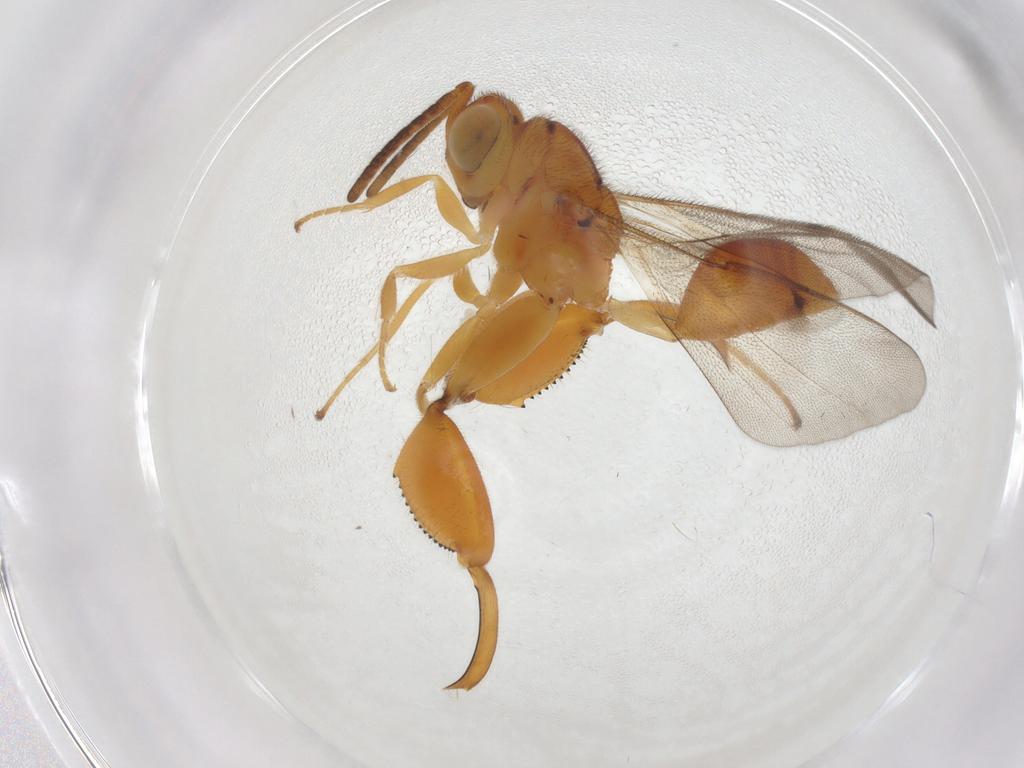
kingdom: Animalia
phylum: Arthropoda
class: Insecta
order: Hymenoptera
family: Chalcididae
